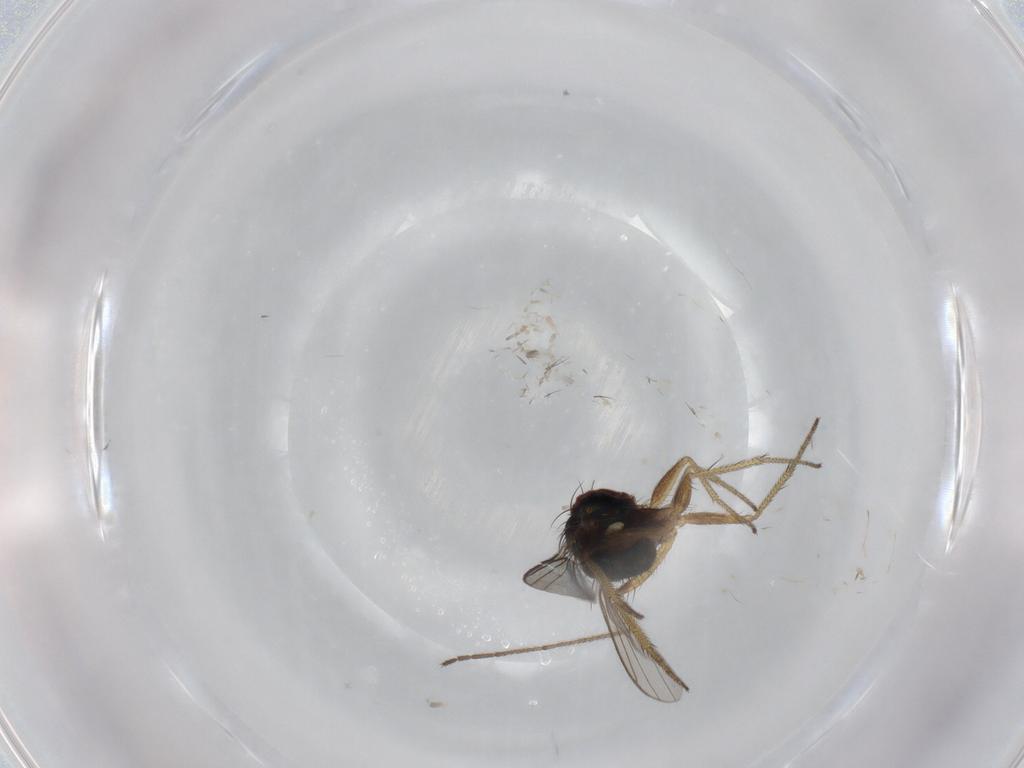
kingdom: Animalia
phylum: Arthropoda
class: Insecta
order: Diptera
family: Dolichopodidae
